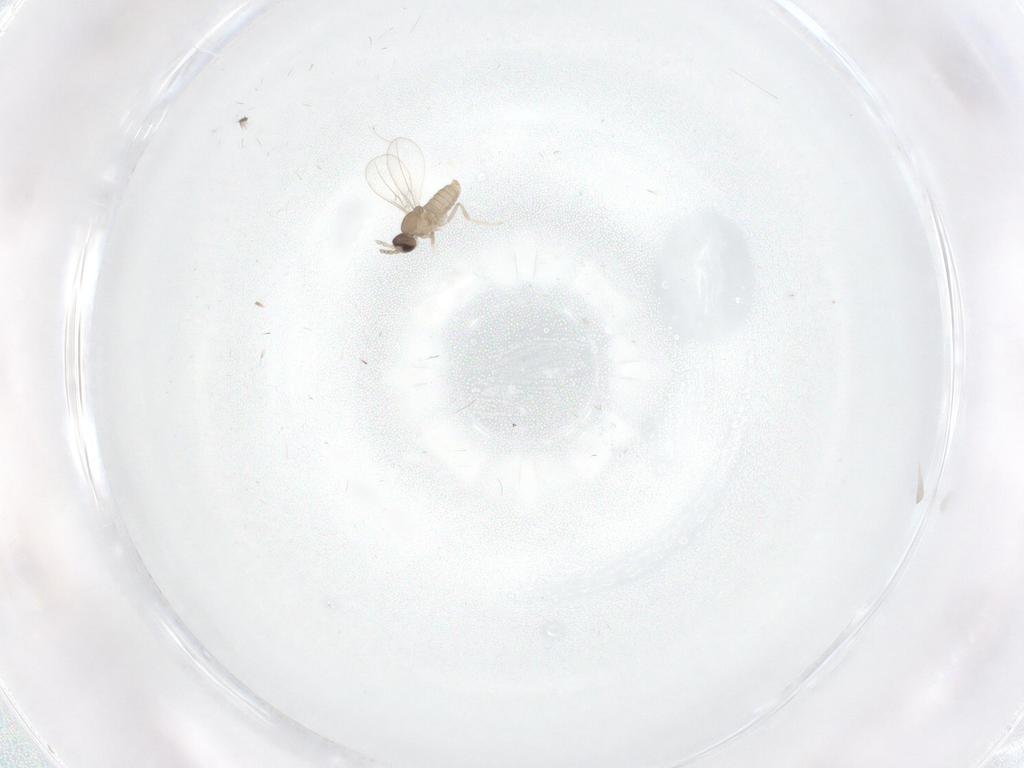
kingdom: Animalia
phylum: Arthropoda
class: Insecta
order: Diptera
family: Cecidomyiidae
